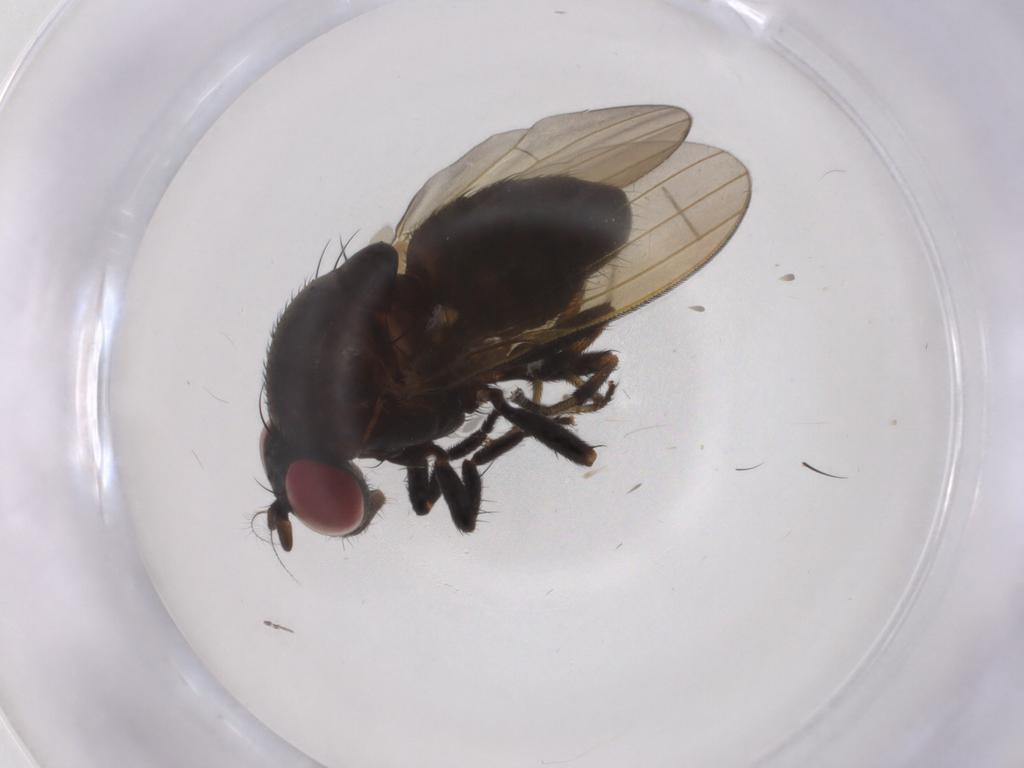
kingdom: Animalia
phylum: Arthropoda
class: Insecta
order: Diptera
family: Lauxaniidae
